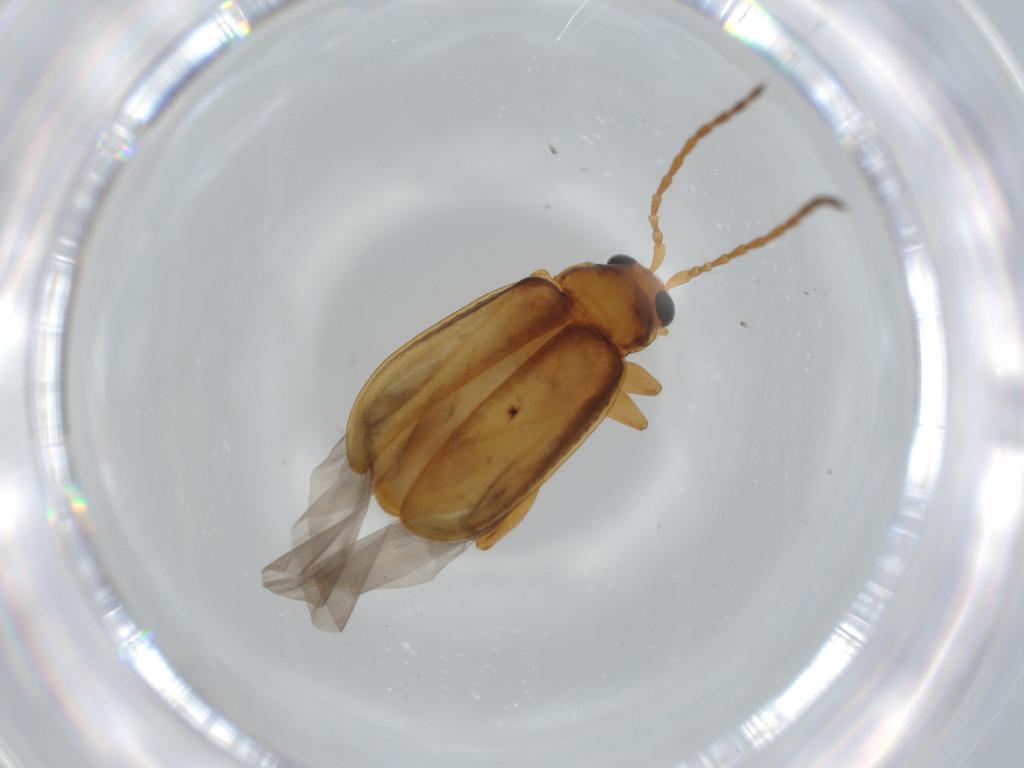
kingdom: Animalia
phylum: Arthropoda
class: Insecta
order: Coleoptera
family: Chrysomelidae
